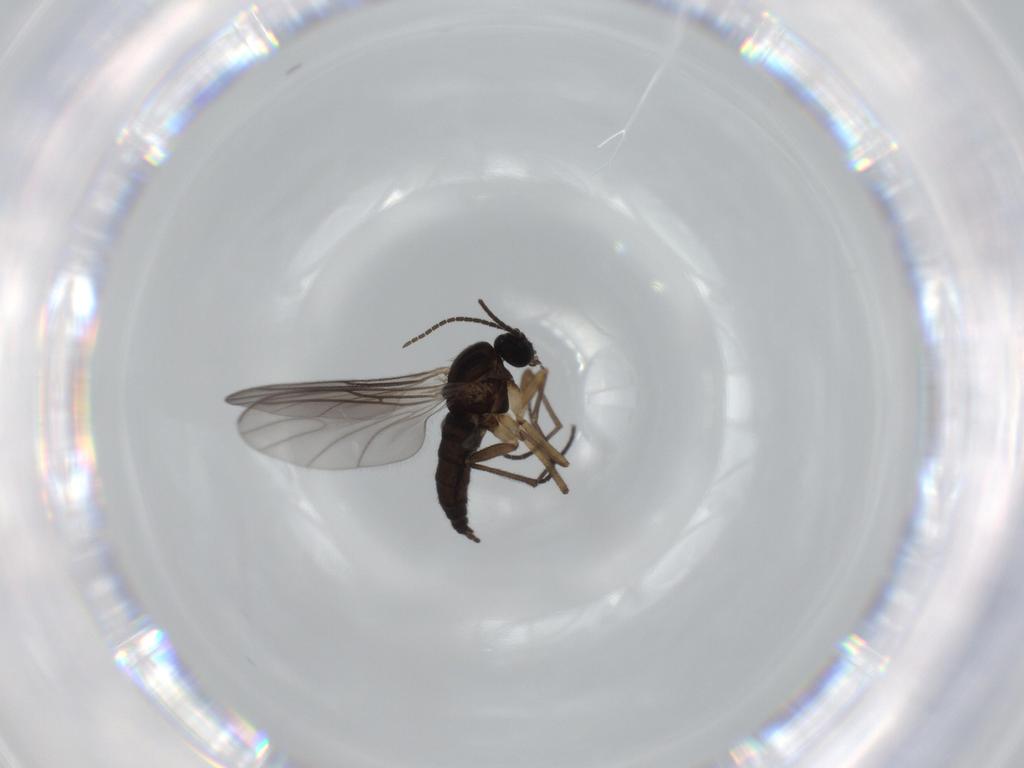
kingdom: Animalia
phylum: Arthropoda
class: Insecta
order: Diptera
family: Sciaridae
